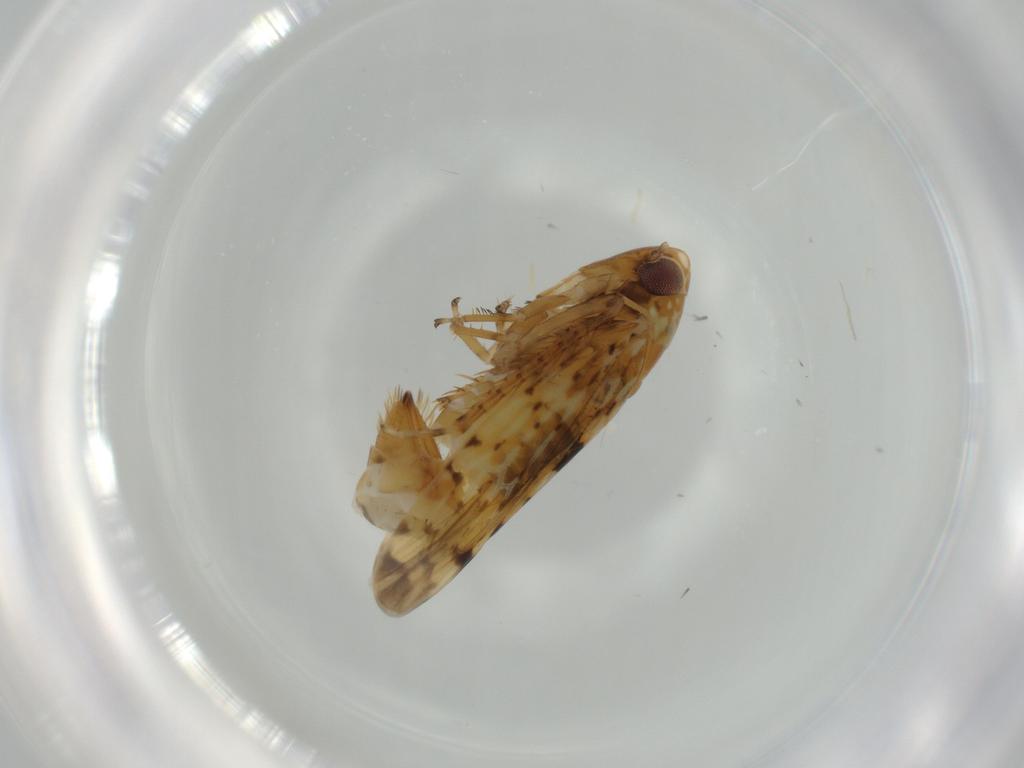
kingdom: Animalia
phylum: Arthropoda
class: Insecta
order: Hemiptera
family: Cicadellidae
